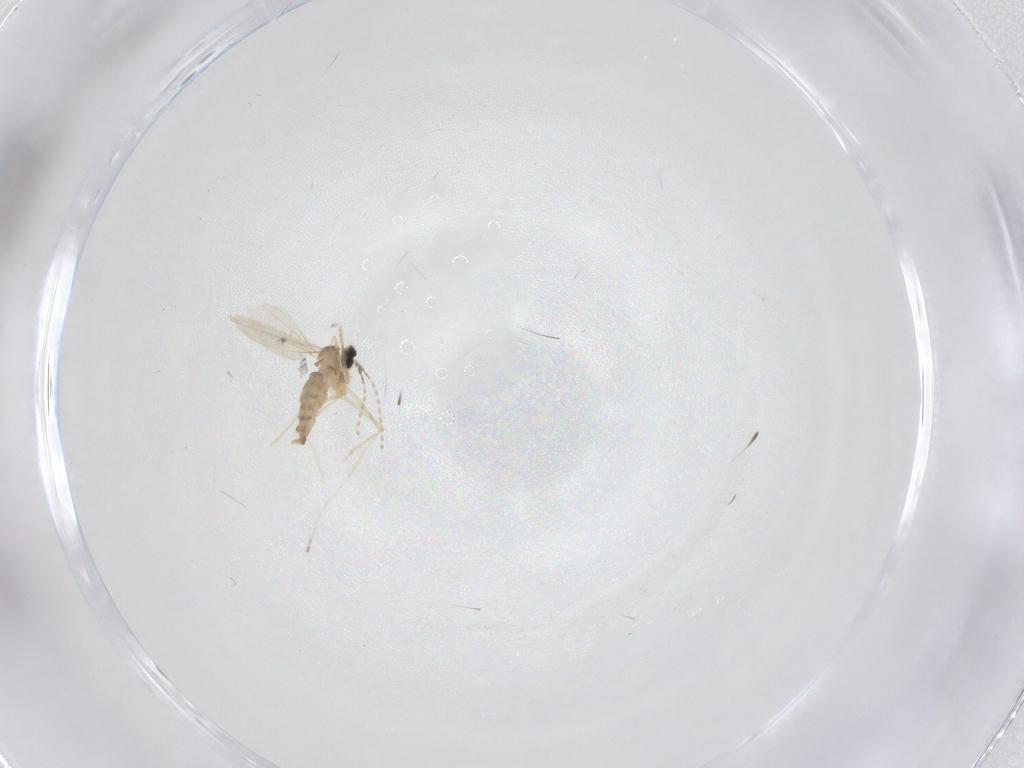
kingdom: Animalia
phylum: Arthropoda
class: Insecta
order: Diptera
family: Cecidomyiidae
